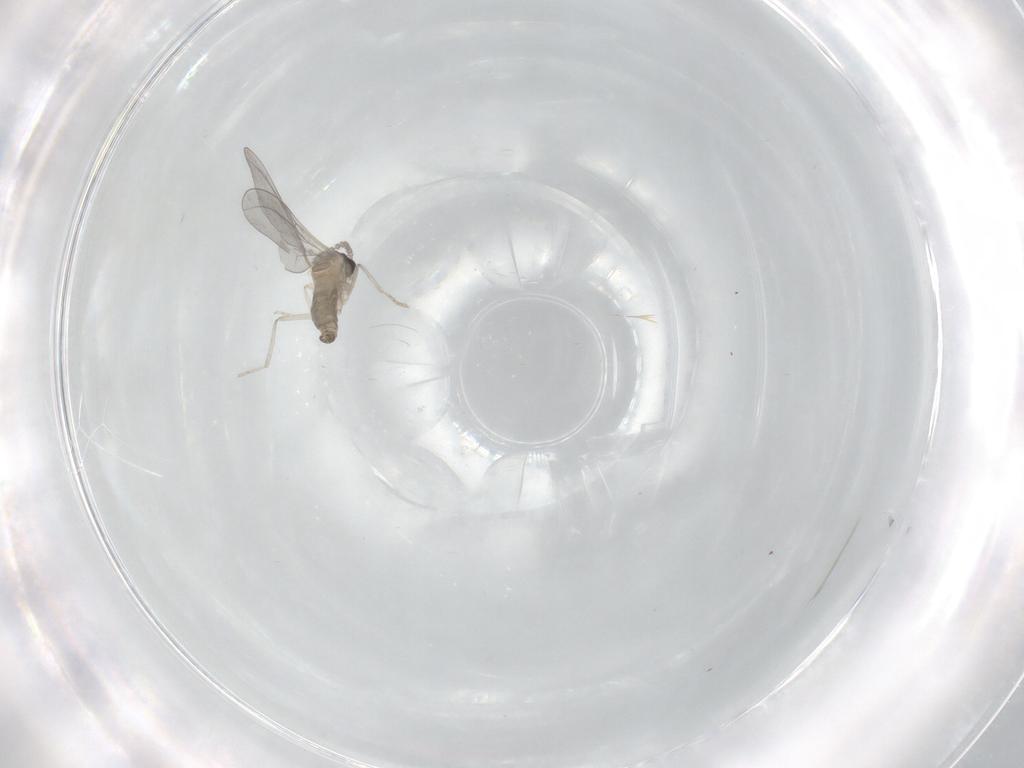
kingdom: Animalia
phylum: Arthropoda
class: Insecta
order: Diptera
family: Cecidomyiidae
